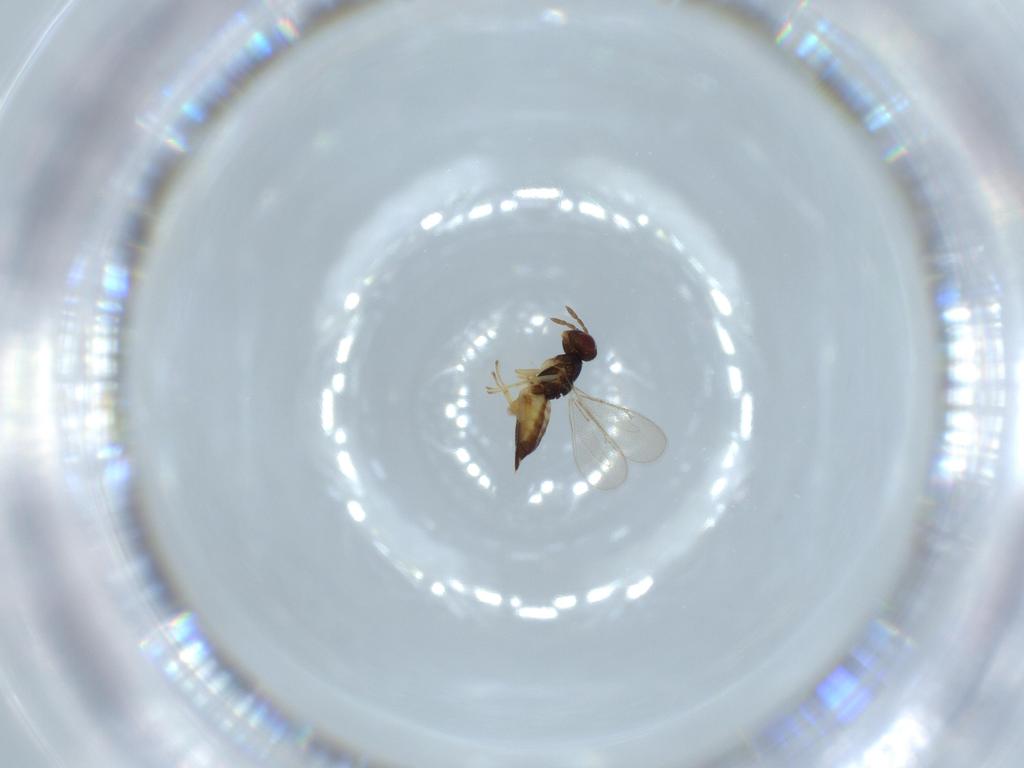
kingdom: Animalia
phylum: Arthropoda
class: Insecta
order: Hymenoptera
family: Eulophidae
